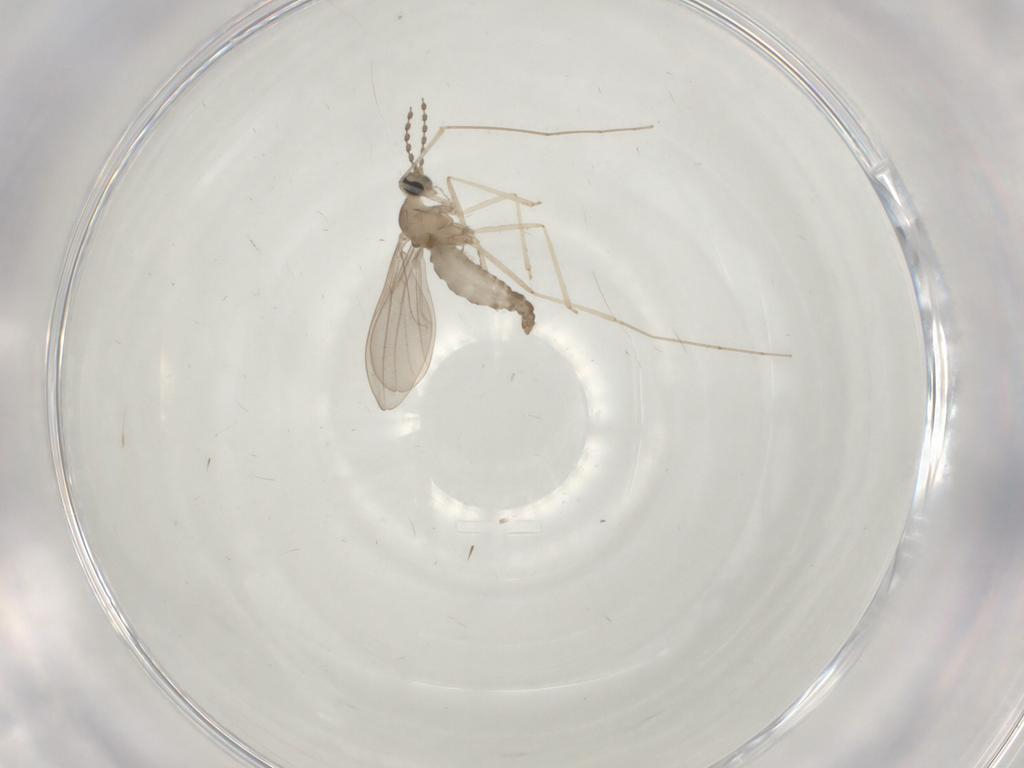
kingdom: Animalia
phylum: Arthropoda
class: Insecta
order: Diptera
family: Cecidomyiidae
